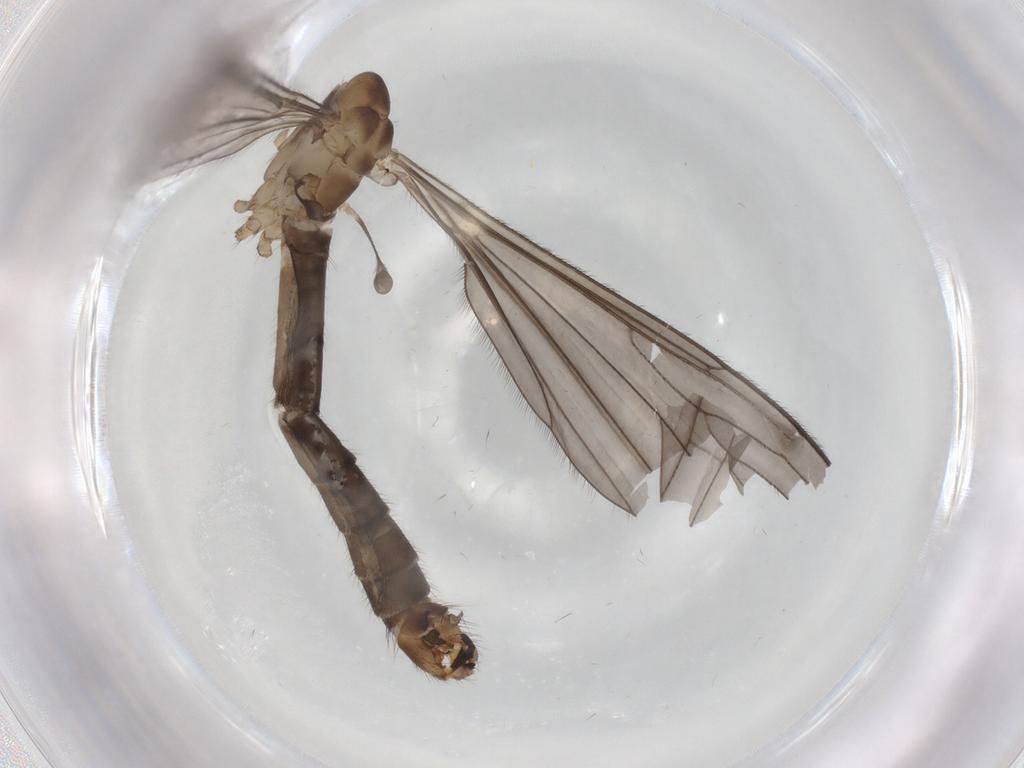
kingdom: Animalia
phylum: Arthropoda
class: Insecta
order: Diptera
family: Limoniidae
